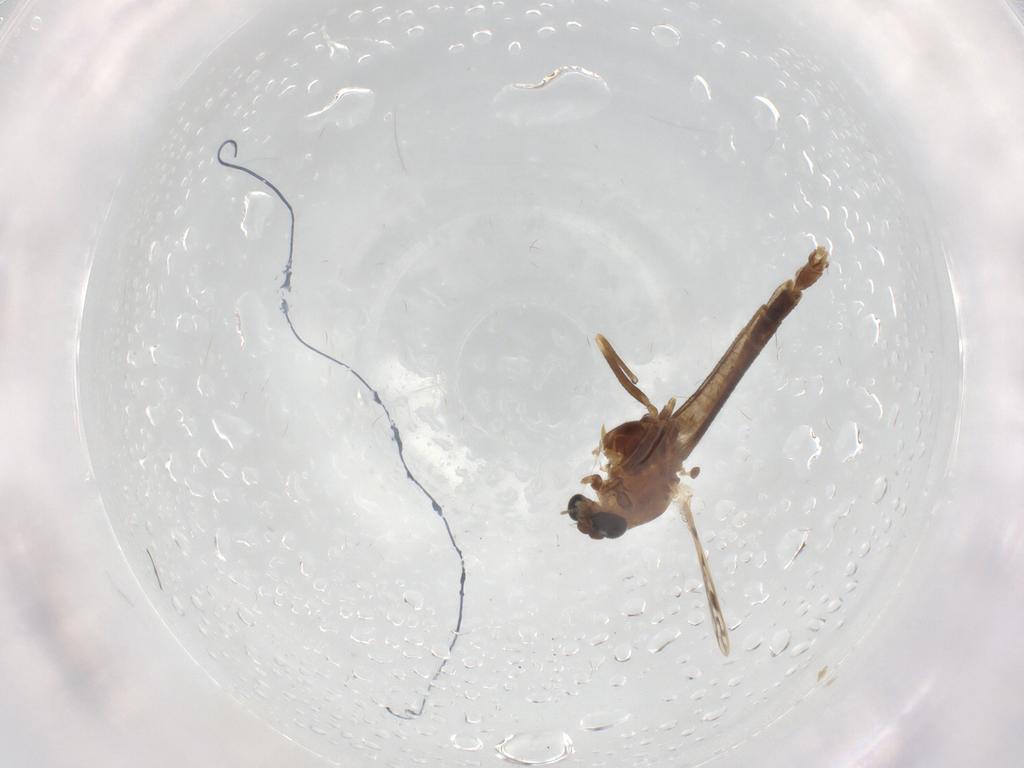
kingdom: Animalia
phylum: Arthropoda
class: Insecta
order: Diptera
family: Chironomidae
